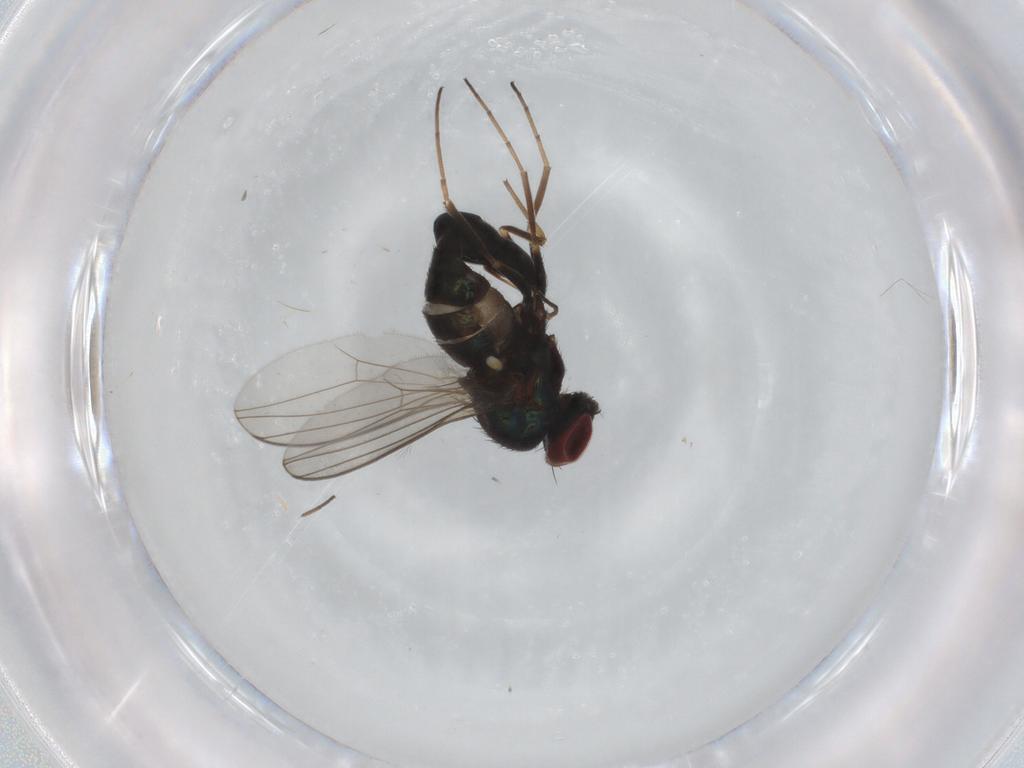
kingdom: Animalia
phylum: Arthropoda
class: Insecta
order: Diptera
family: Dolichopodidae
